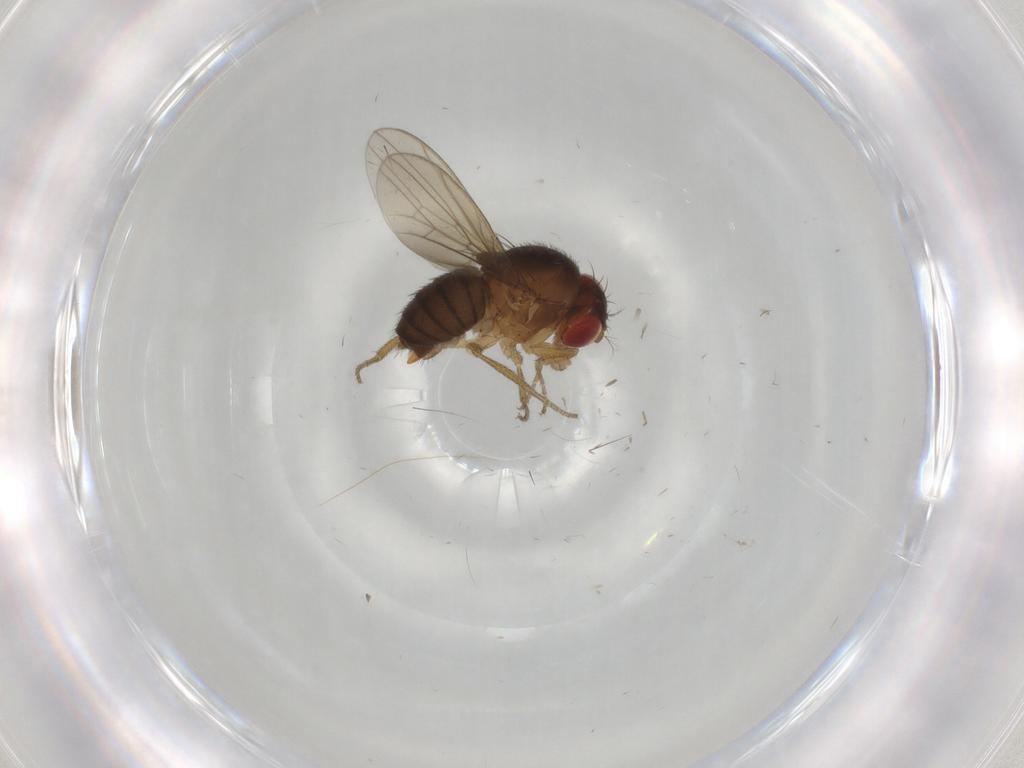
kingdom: Animalia
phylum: Arthropoda
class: Insecta
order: Diptera
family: Drosophilidae
